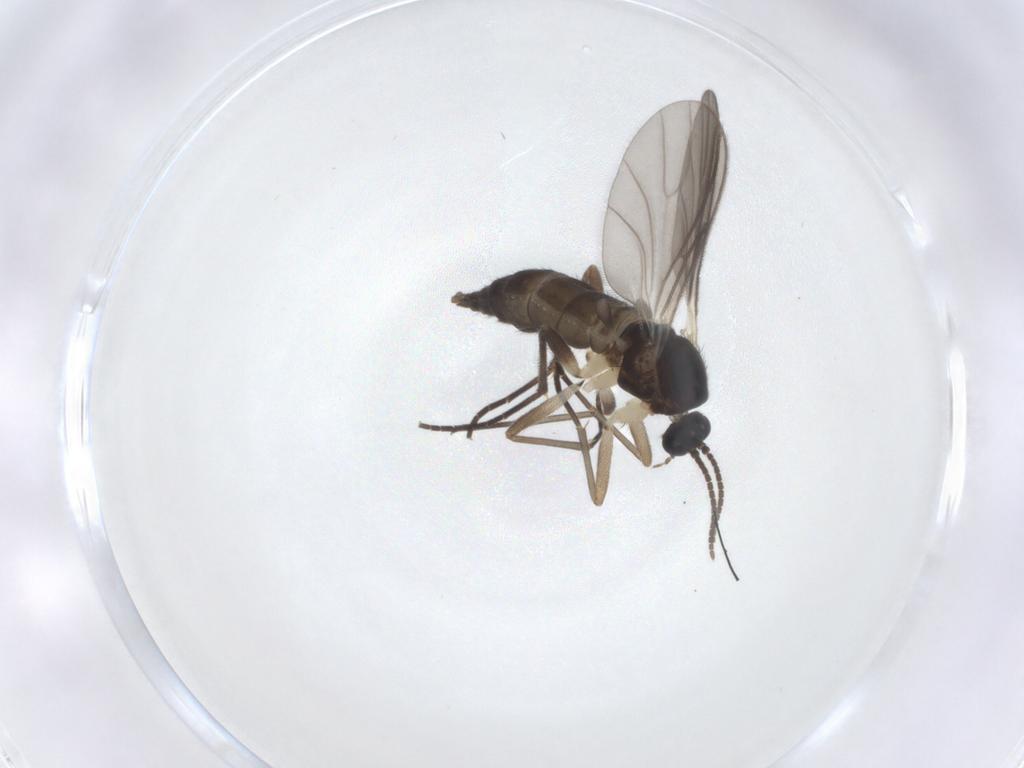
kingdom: Animalia
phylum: Arthropoda
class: Insecta
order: Diptera
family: Sciaridae
